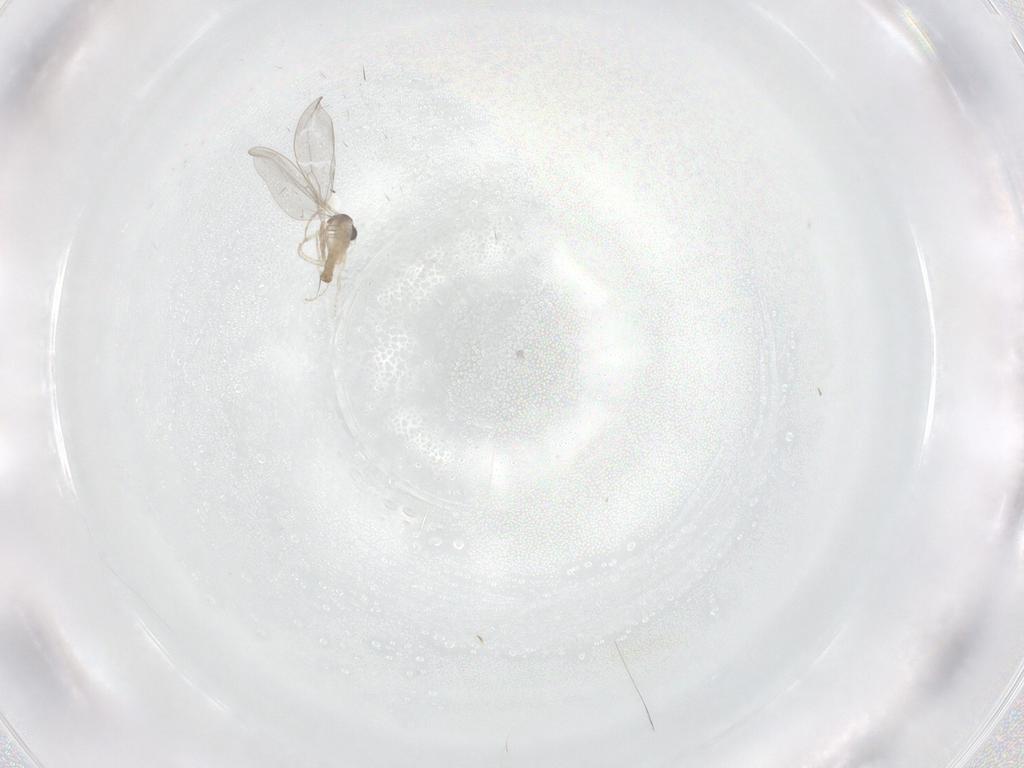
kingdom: Animalia
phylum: Arthropoda
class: Insecta
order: Diptera
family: Cecidomyiidae
